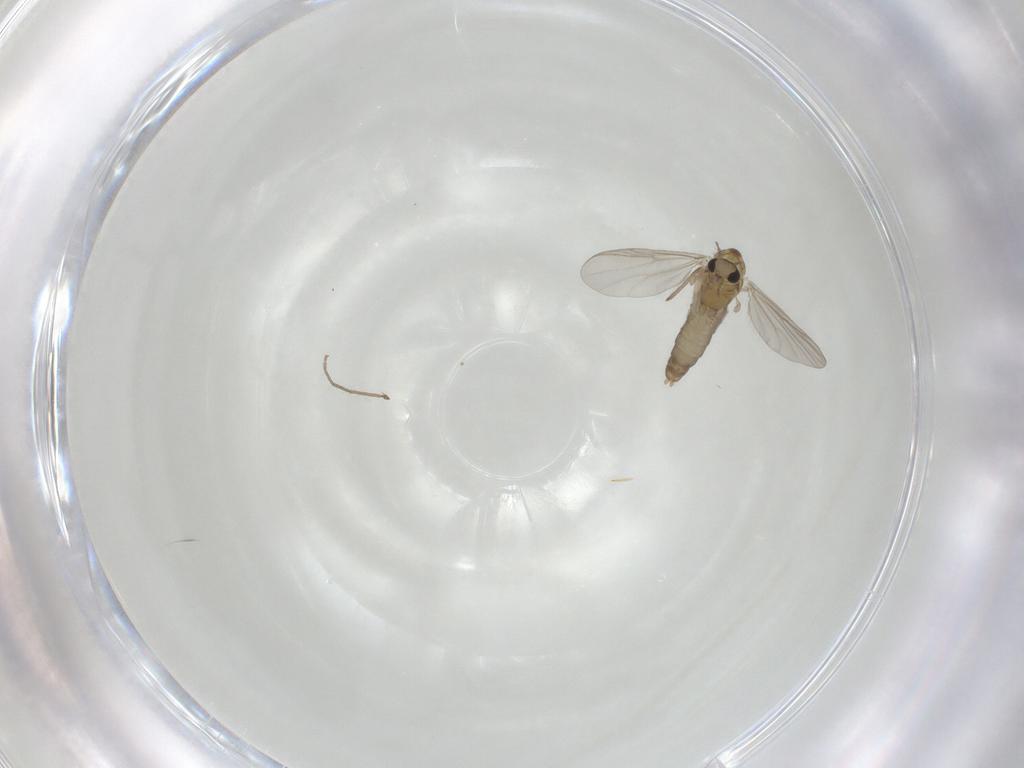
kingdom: Animalia
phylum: Arthropoda
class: Insecta
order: Diptera
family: Chironomidae
